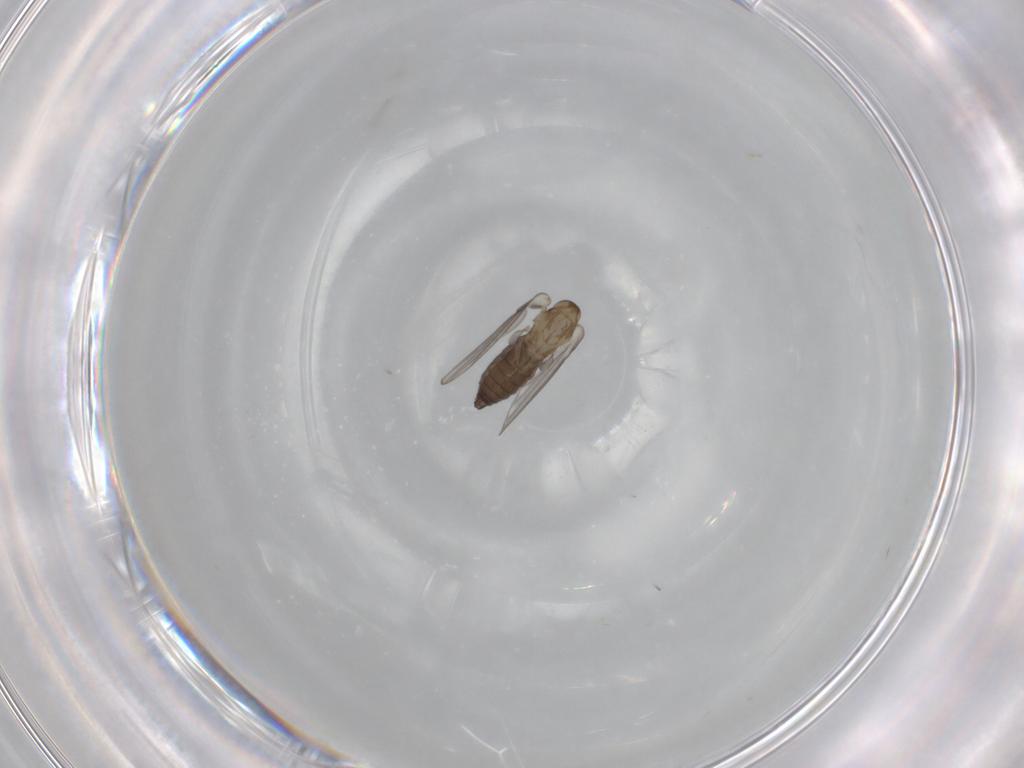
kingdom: Animalia
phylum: Arthropoda
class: Insecta
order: Diptera
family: Psychodidae
